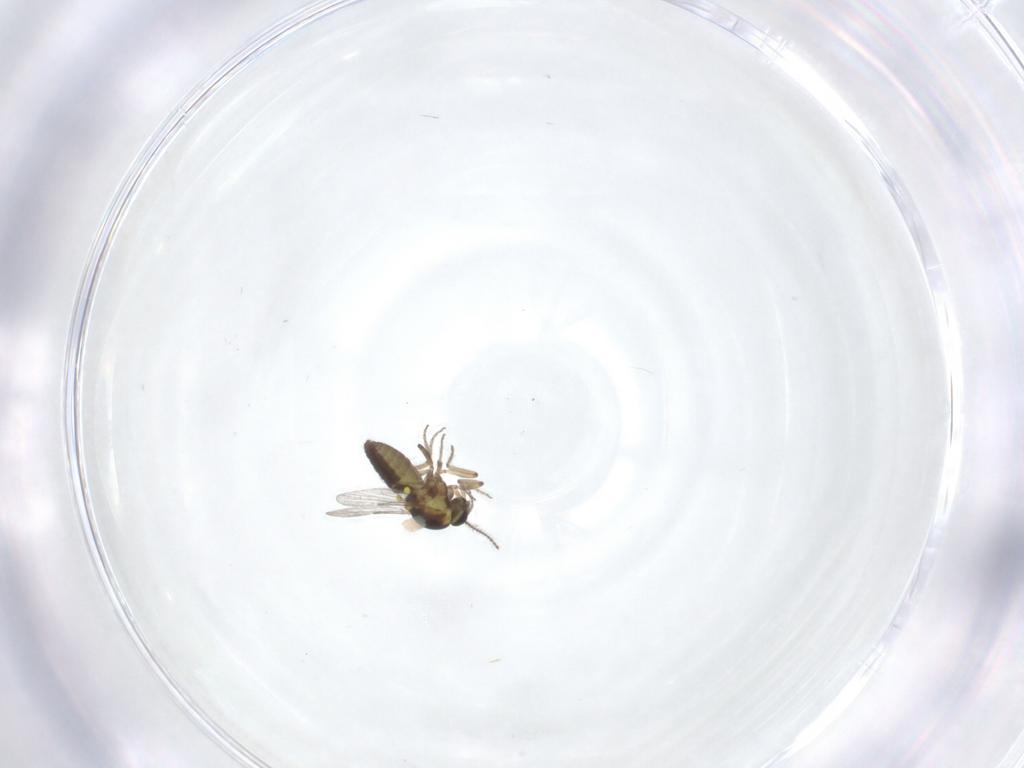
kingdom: Animalia
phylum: Arthropoda
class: Insecta
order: Diptera
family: Ceratopogonidae
